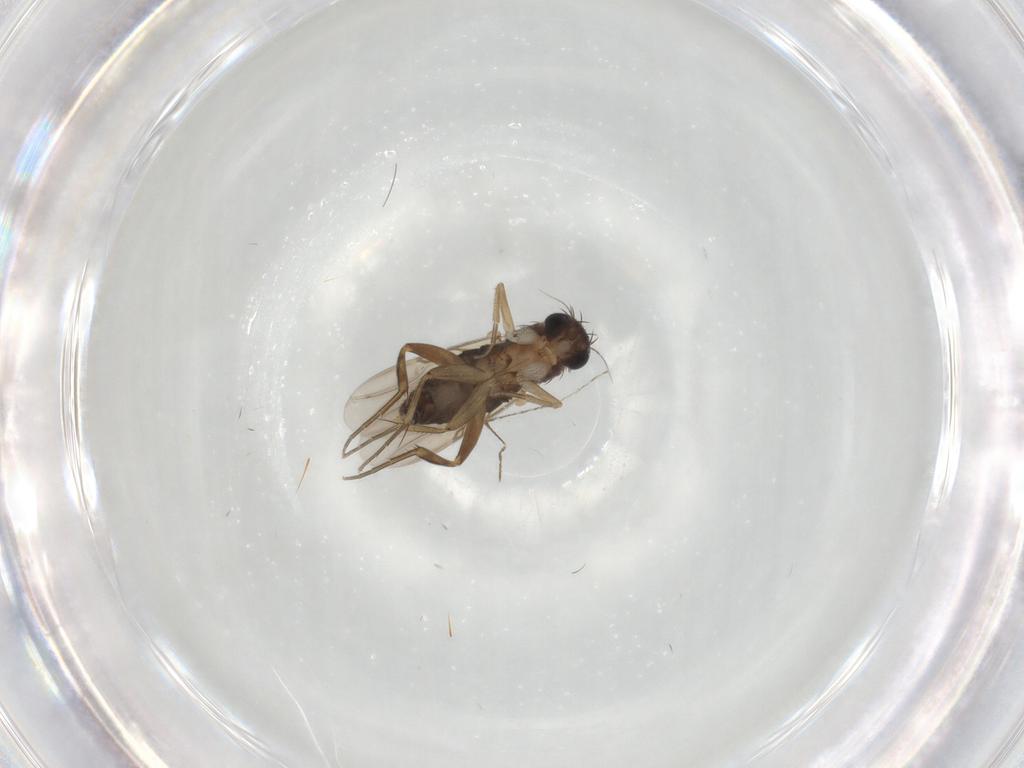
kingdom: Animalia
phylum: Arthropoda
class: Insecta
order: Diptera
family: Phoridae
